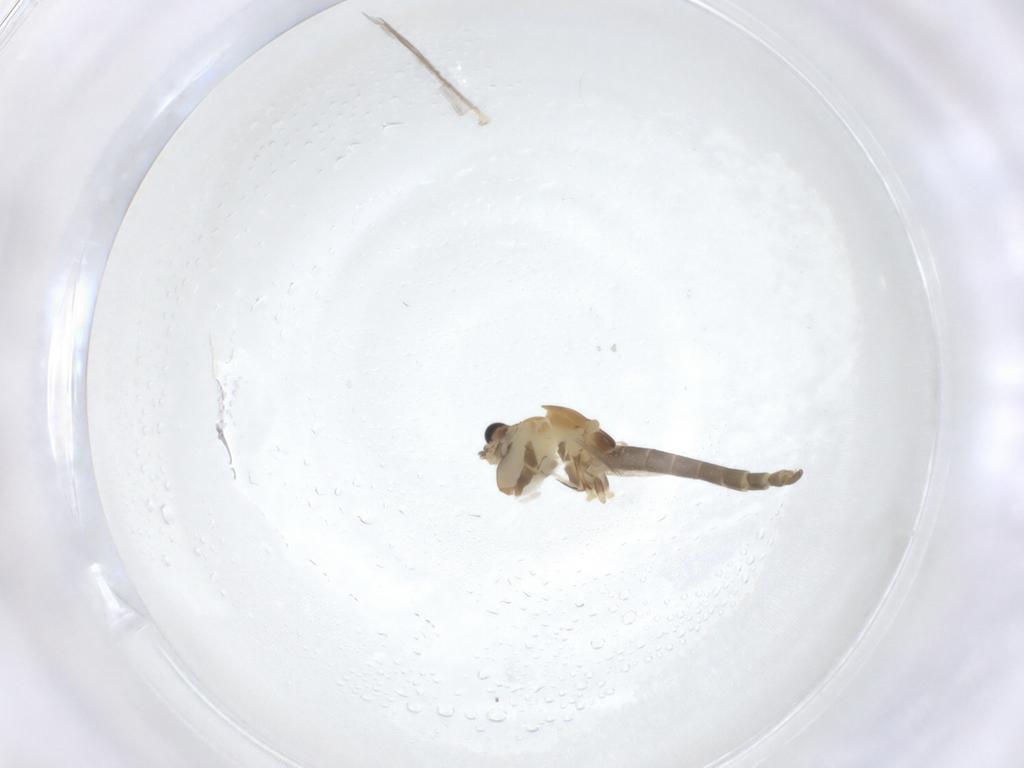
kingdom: Animalia
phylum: Arthropoda
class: Insecta
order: Diptera
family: Chironomidae
